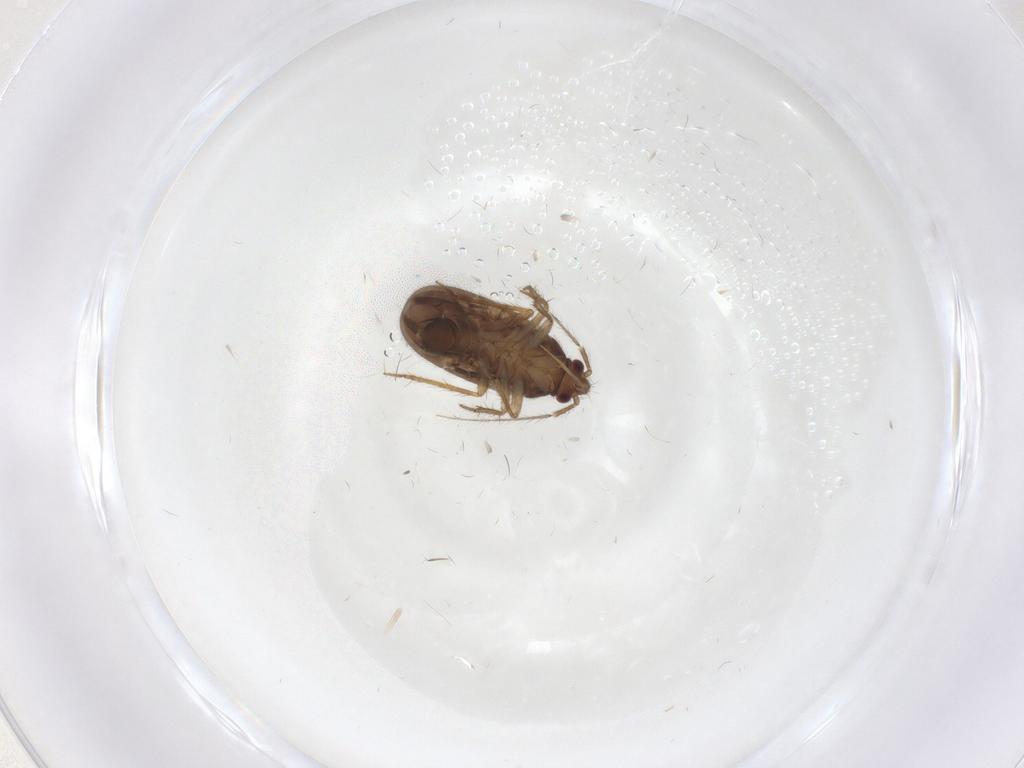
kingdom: Animalia
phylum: Arthropoda
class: Insecta
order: Hemiptera
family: Ceratocombidae
